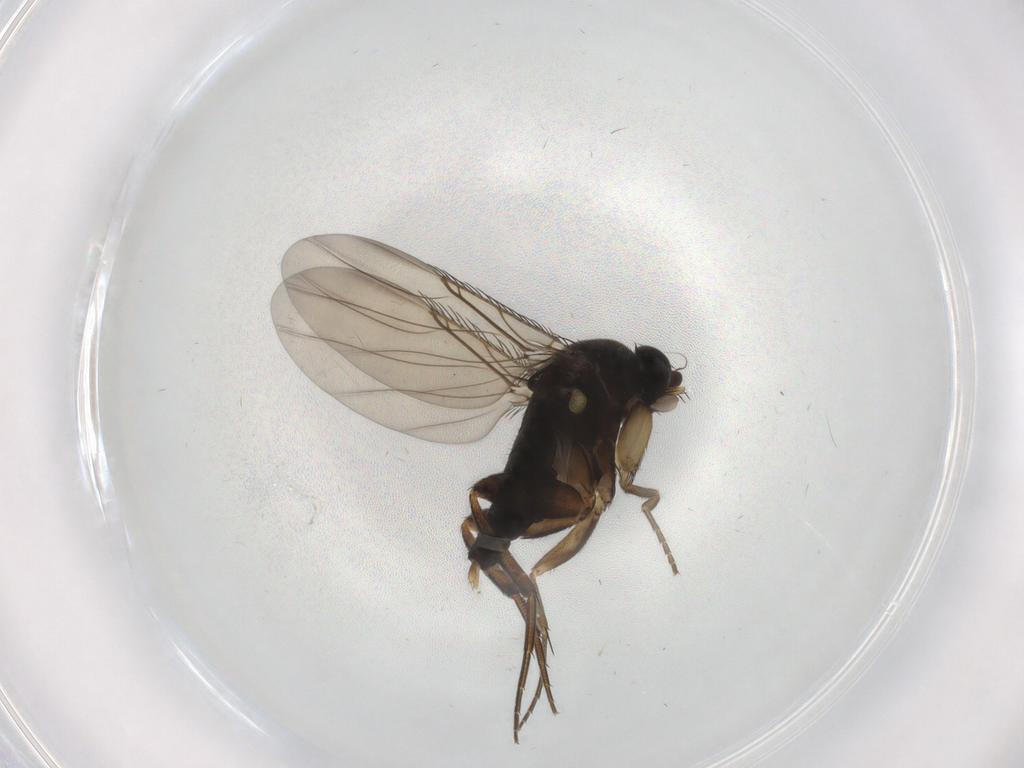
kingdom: Animalia
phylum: Arthropoda
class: Insecta
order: Diptera
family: Phoridae
